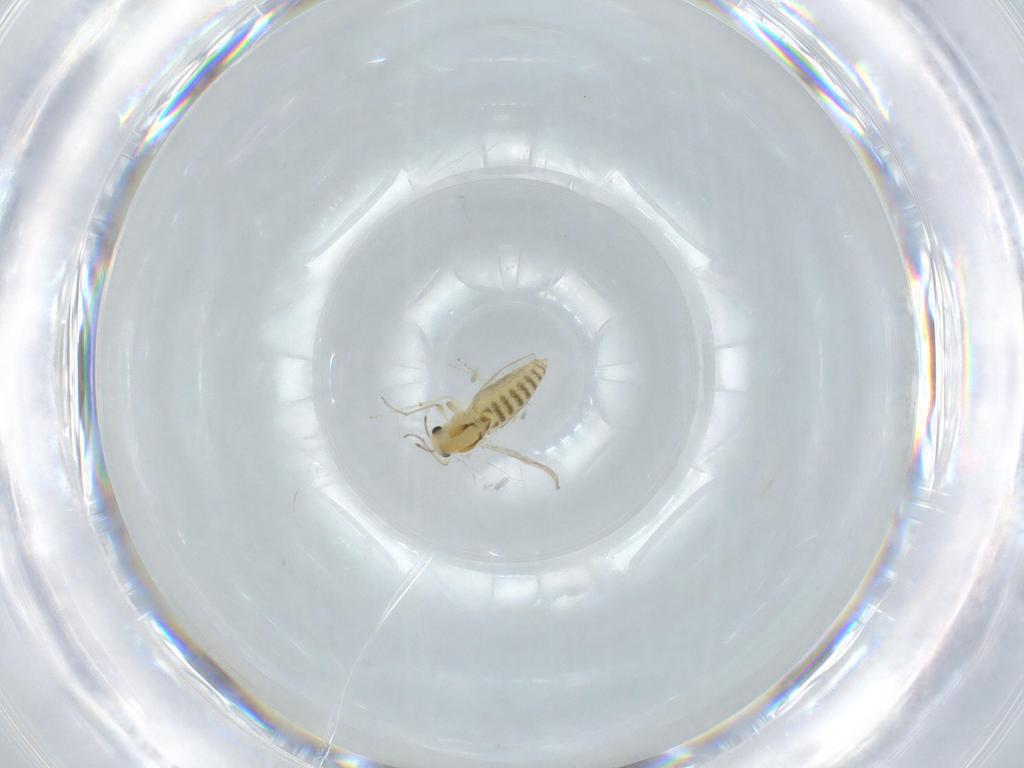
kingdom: Animalia
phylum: Arthropoda
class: Insecta
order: Diptera
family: Chironomidae
